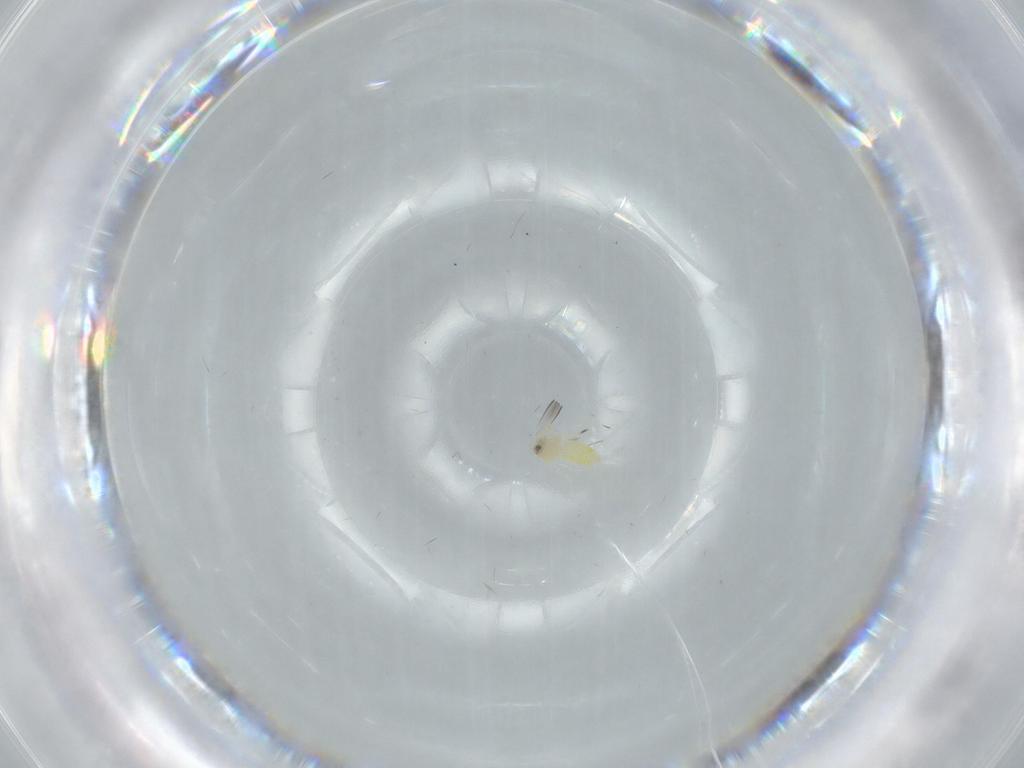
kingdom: Animalia
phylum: Arthropoda
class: Insecta
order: Hemiptera
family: Aleyrodidae
